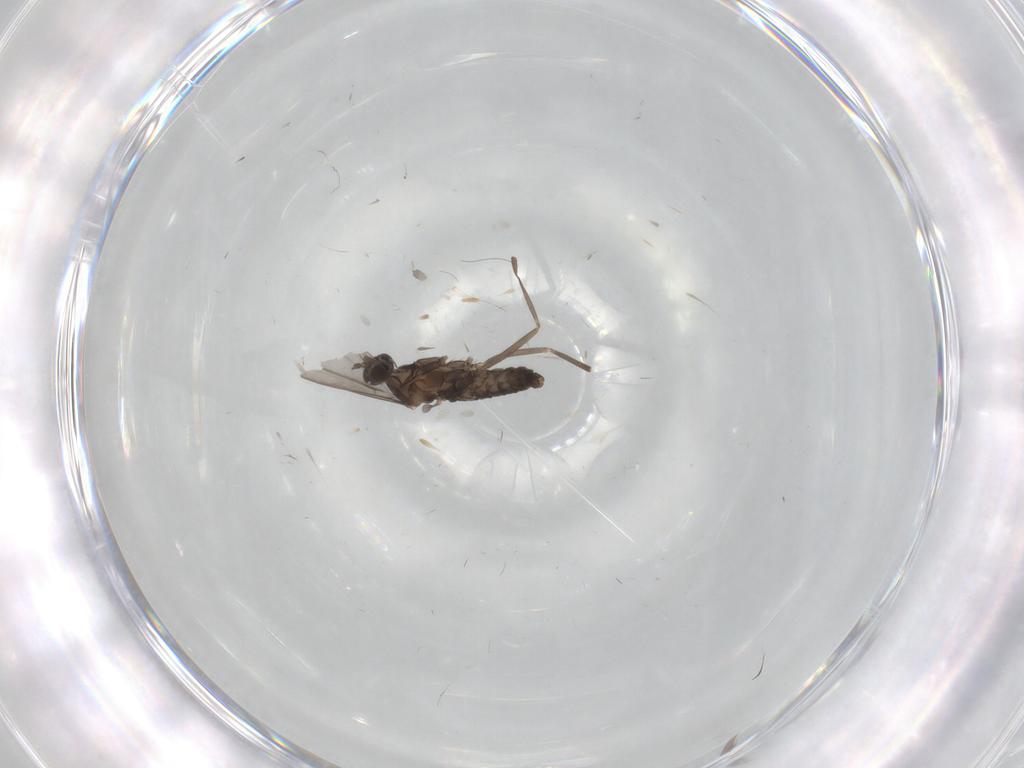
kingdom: Animalia
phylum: Arthropoda
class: Insecta
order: Diptera
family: Cecidomyiidae
